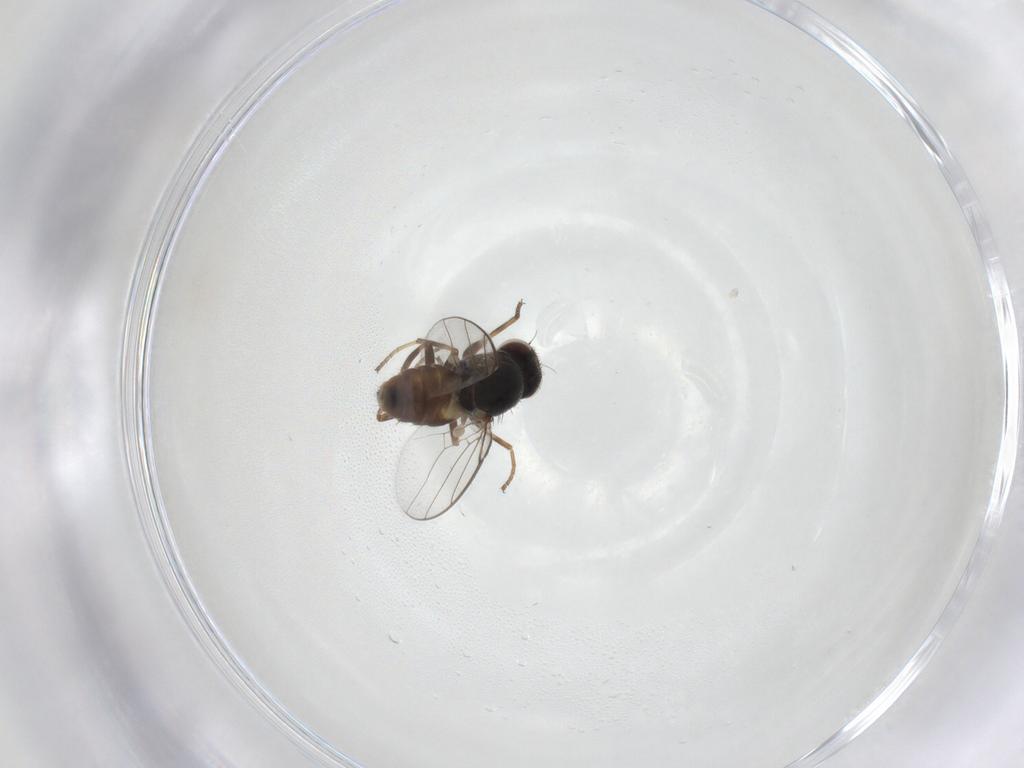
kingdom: Animalia
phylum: Arthropoda
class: Insecta
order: Diptera
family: Chloropidae
